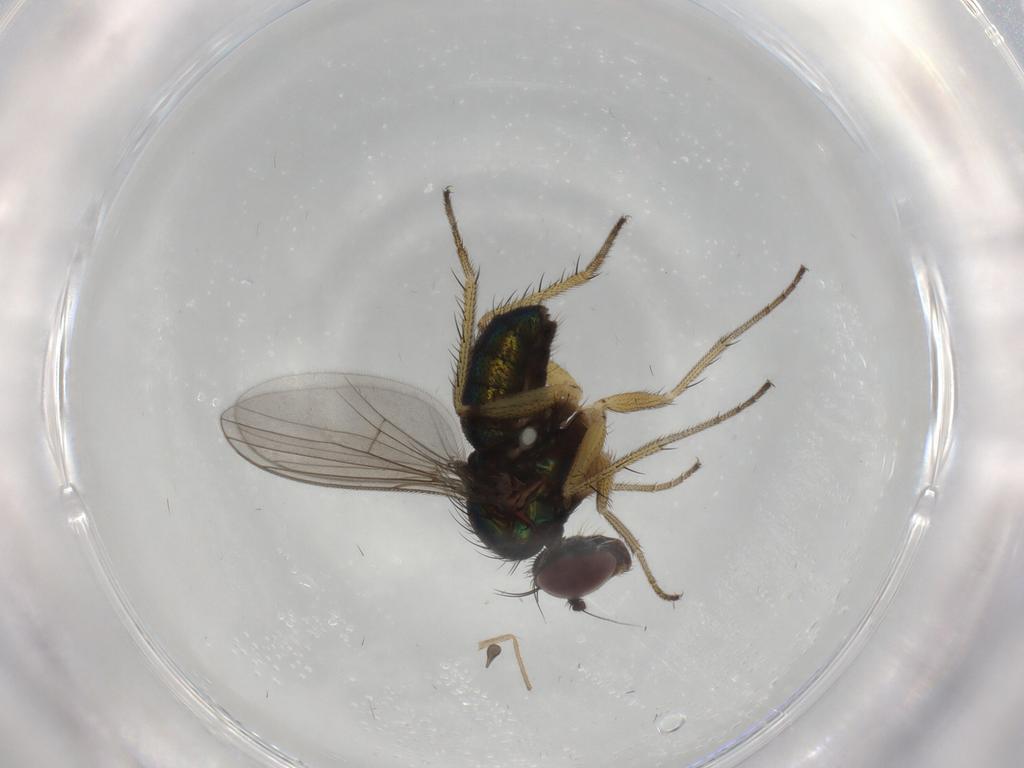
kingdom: Animalia
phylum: Arthropoda
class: Insecta
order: Diptera
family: Dolichopodidae
